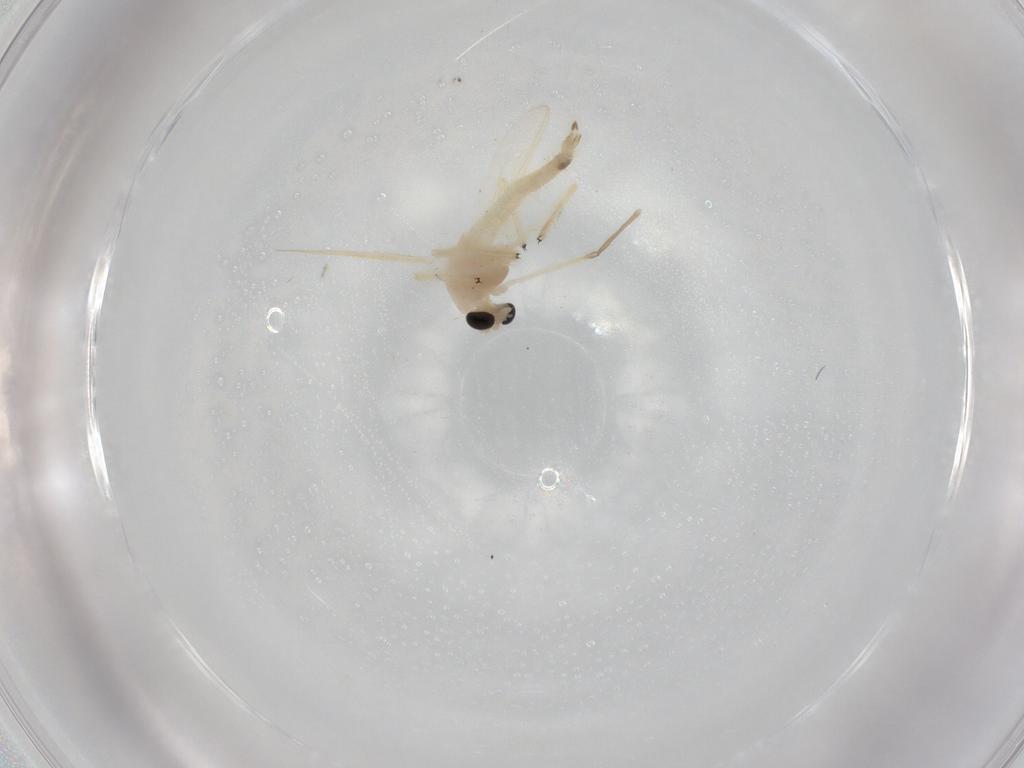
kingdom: Animalia
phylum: Arthropoda
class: Insecta
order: Diptera
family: Chironomidae
